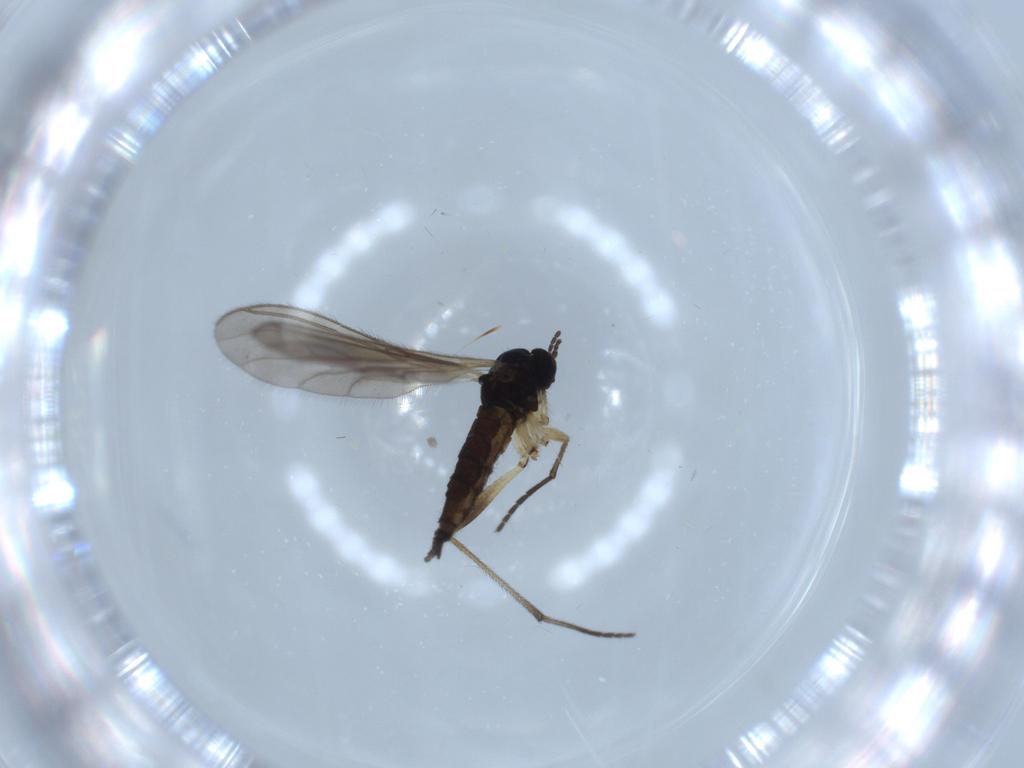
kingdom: Animalia
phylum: Arthropoda
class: Insecta
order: Diptera
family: Sciaridae
